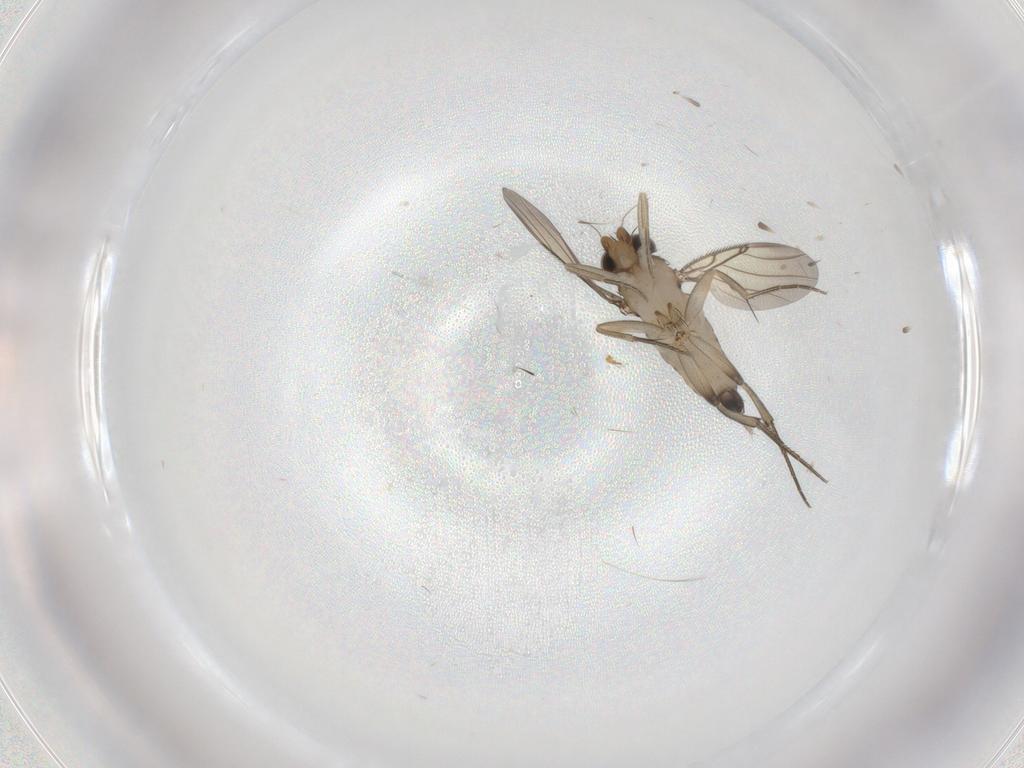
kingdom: Animalia
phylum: Arthropoda
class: Insecta
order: Diptera
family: Phoridae
